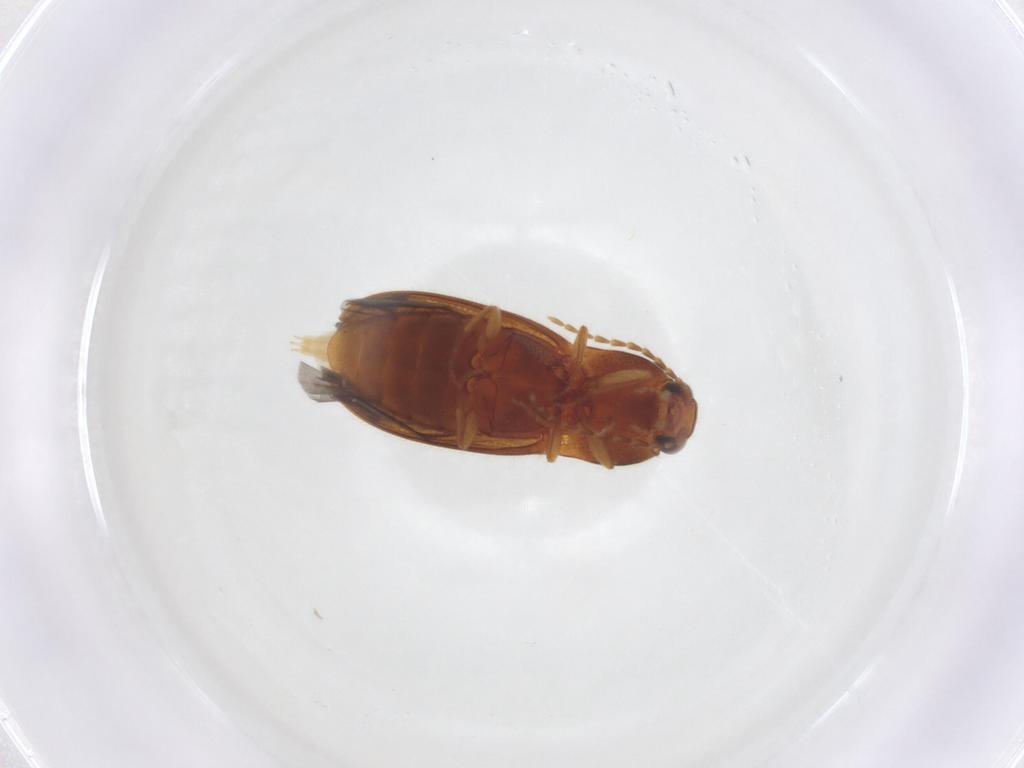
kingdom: Animalia
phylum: Arthropoda
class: Insecta
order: Coleoptera
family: Elateridae
